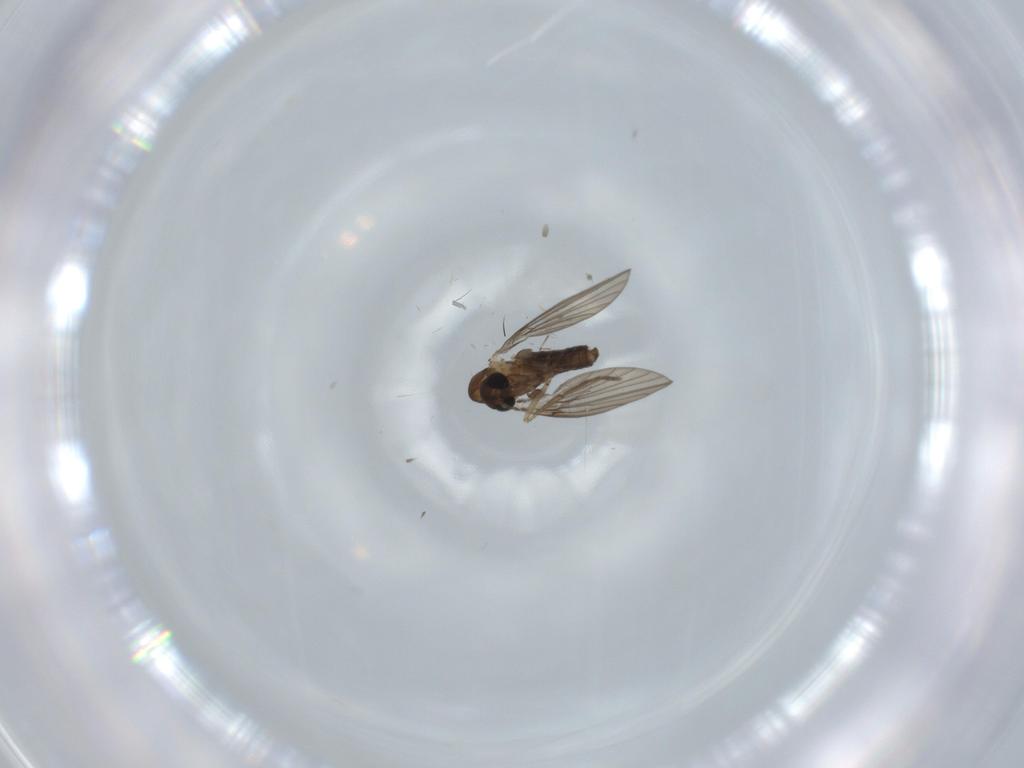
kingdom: Animalia
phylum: Arthropoda
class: Insecta
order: Diptera
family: Psychodidae
